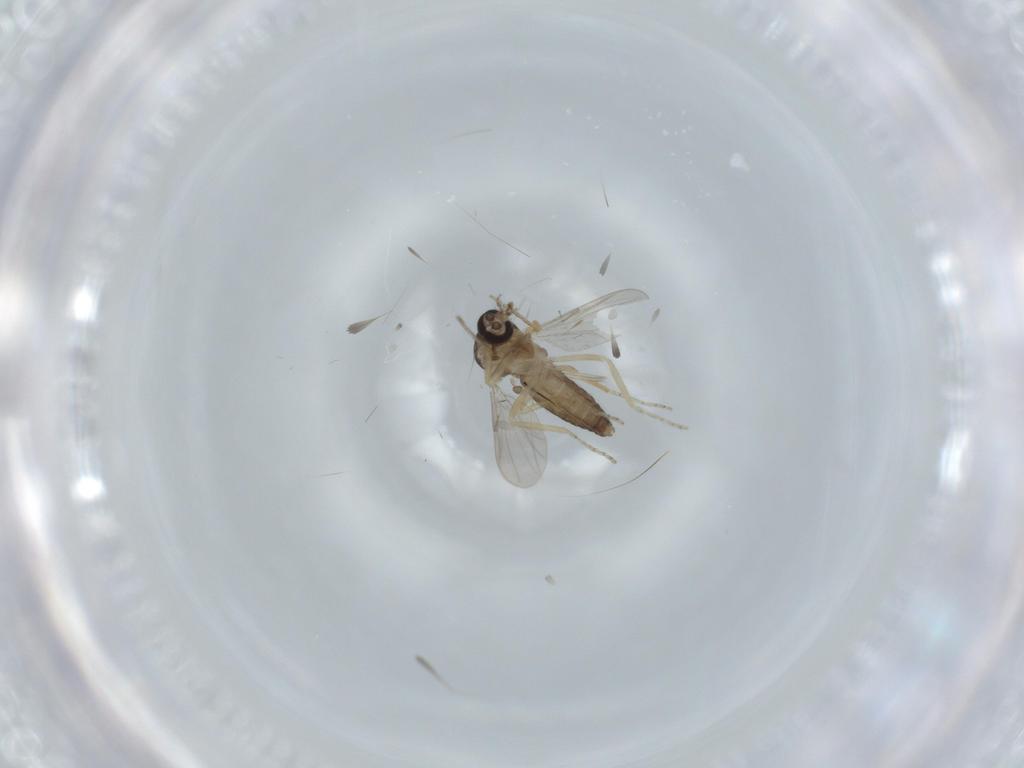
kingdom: Animalia
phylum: Arthropoda
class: Insecta
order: Diptera
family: Ceratopogonidae
